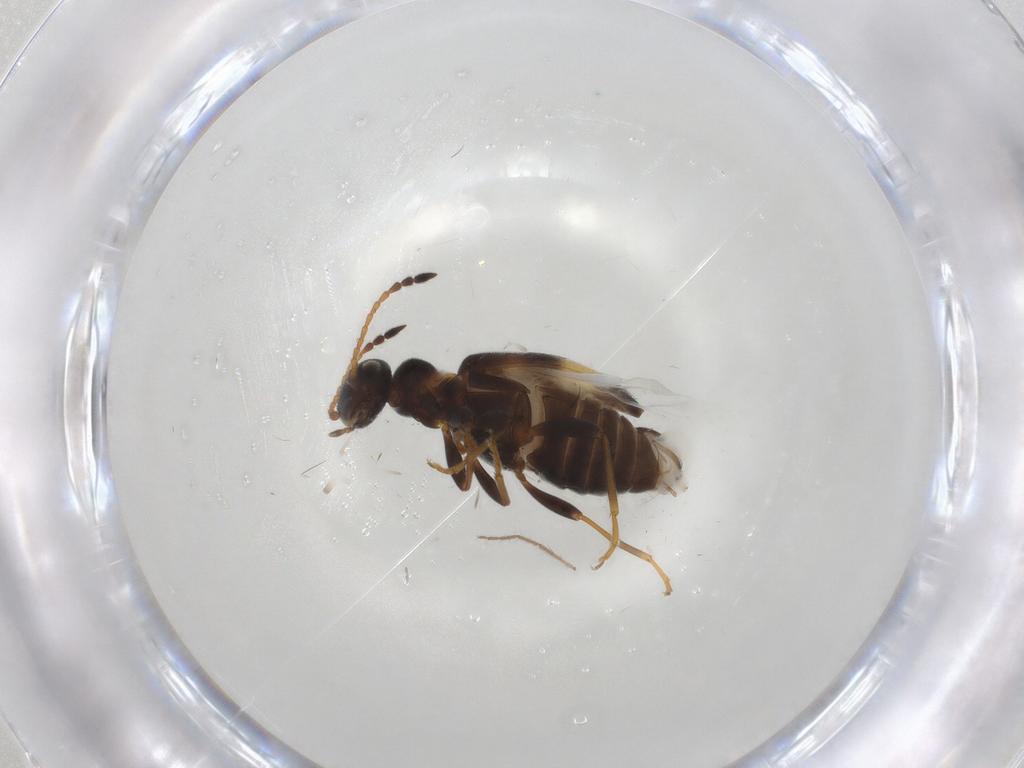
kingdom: Animalia
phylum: Arthropoda
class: Insecta
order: Coleoptera
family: Anthicidae
